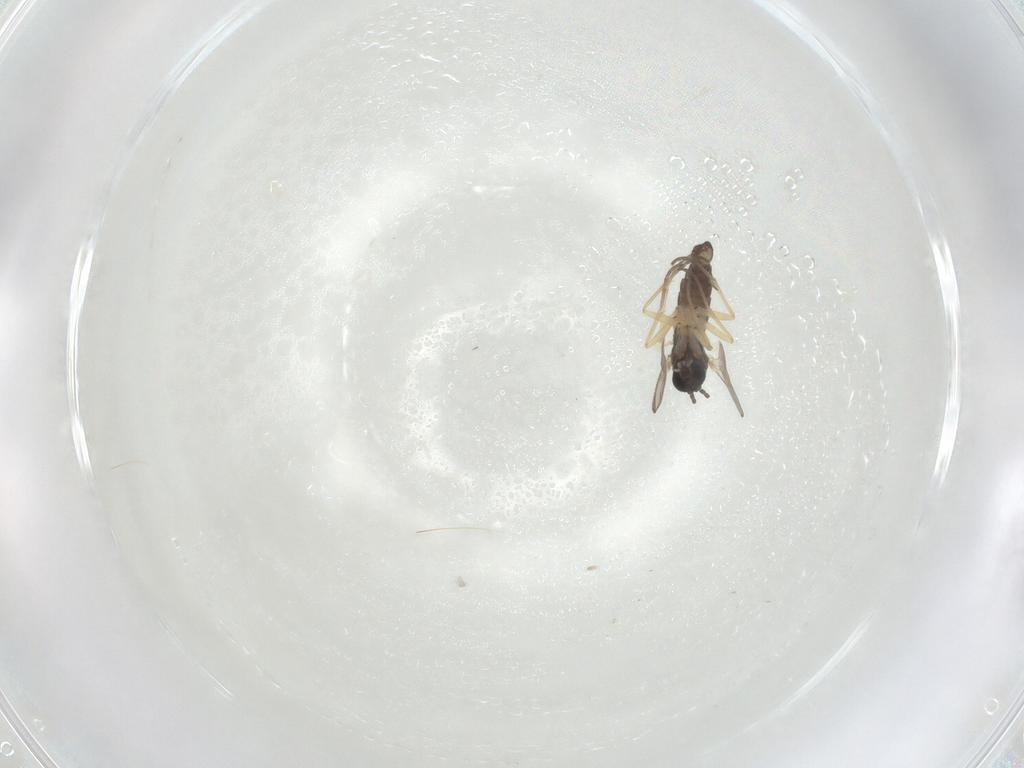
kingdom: Animalia
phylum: Arthropoda
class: Insecta
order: Diptera
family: Sciaridae
